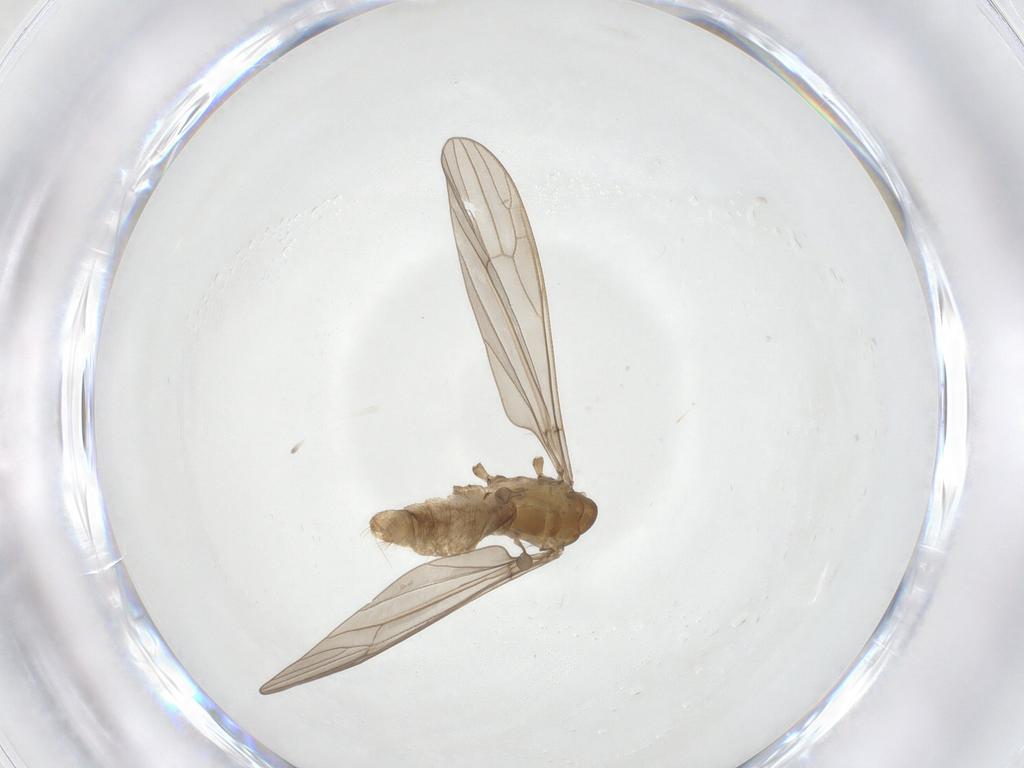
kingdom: Animalia
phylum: Arthropoda
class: Insecta
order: Diptera
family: Limoniidae
